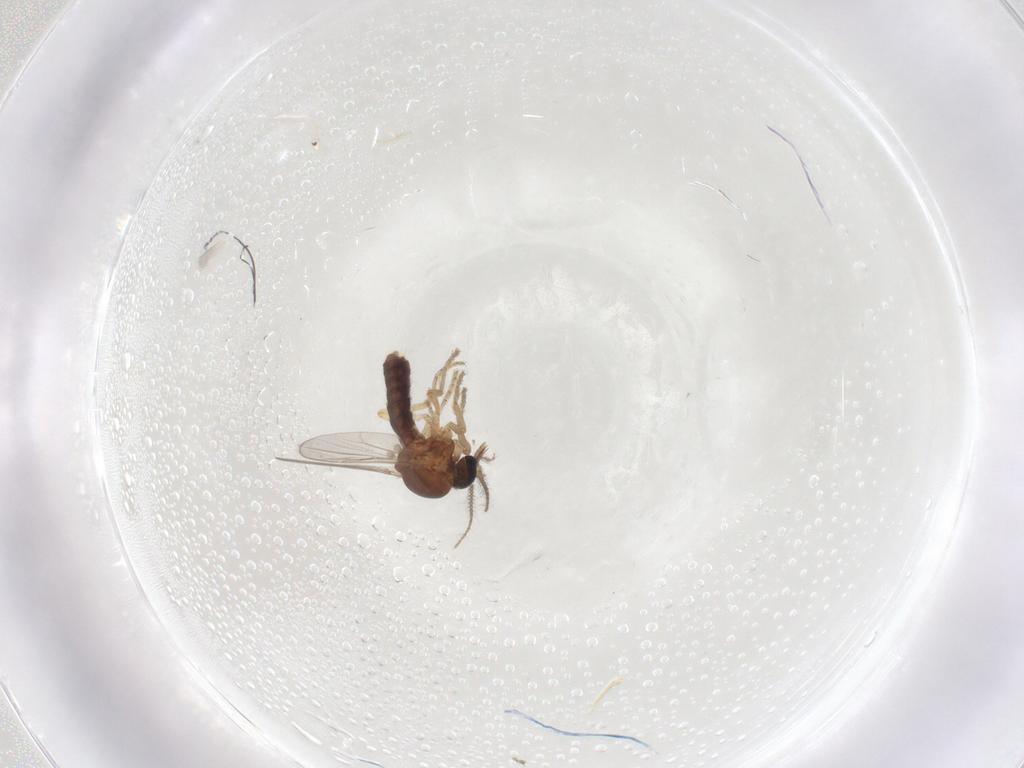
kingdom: Animalia
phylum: Arthropoda
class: Insecta
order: Diptera
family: Ceratopogonidae
